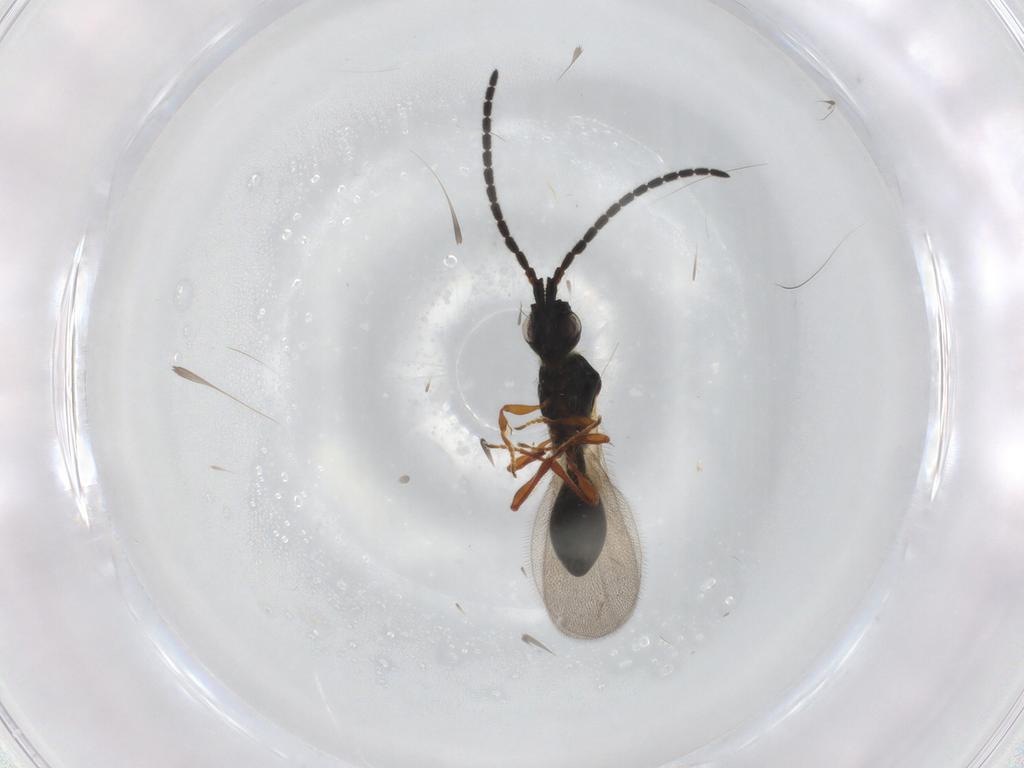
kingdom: Animalia
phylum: Arthropoda
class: Insecta
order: Hymenoptera
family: Diapriidae
